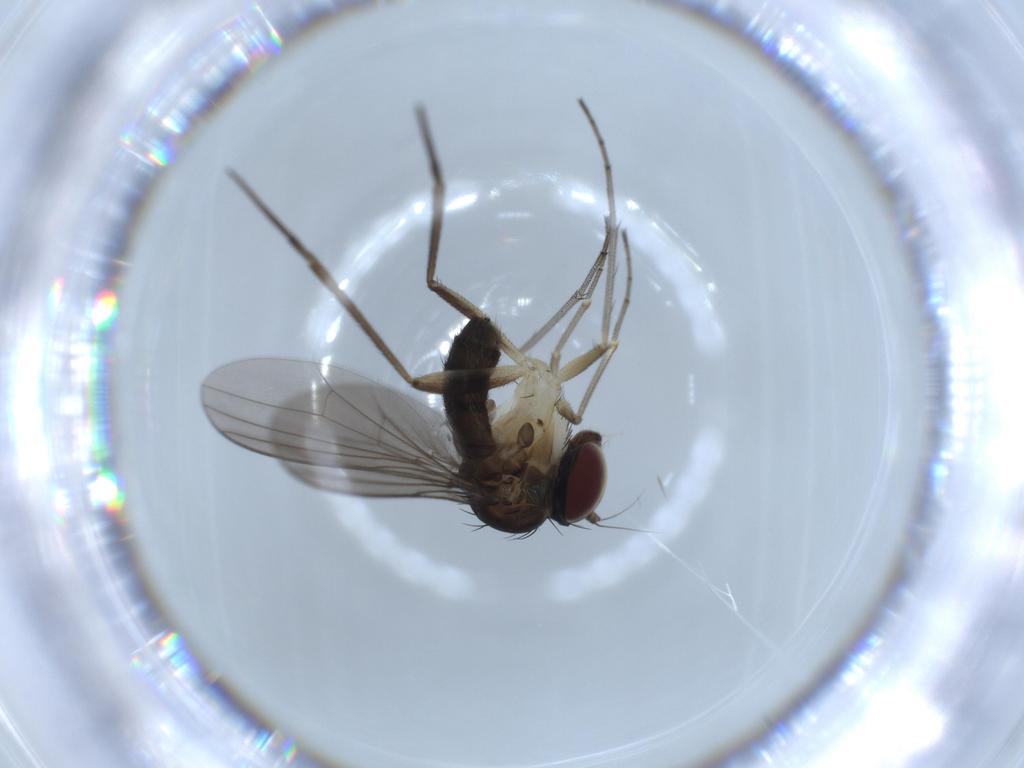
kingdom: Animalia
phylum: Arthropoda
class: Insecta
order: Diptera
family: Dolichopodidae
